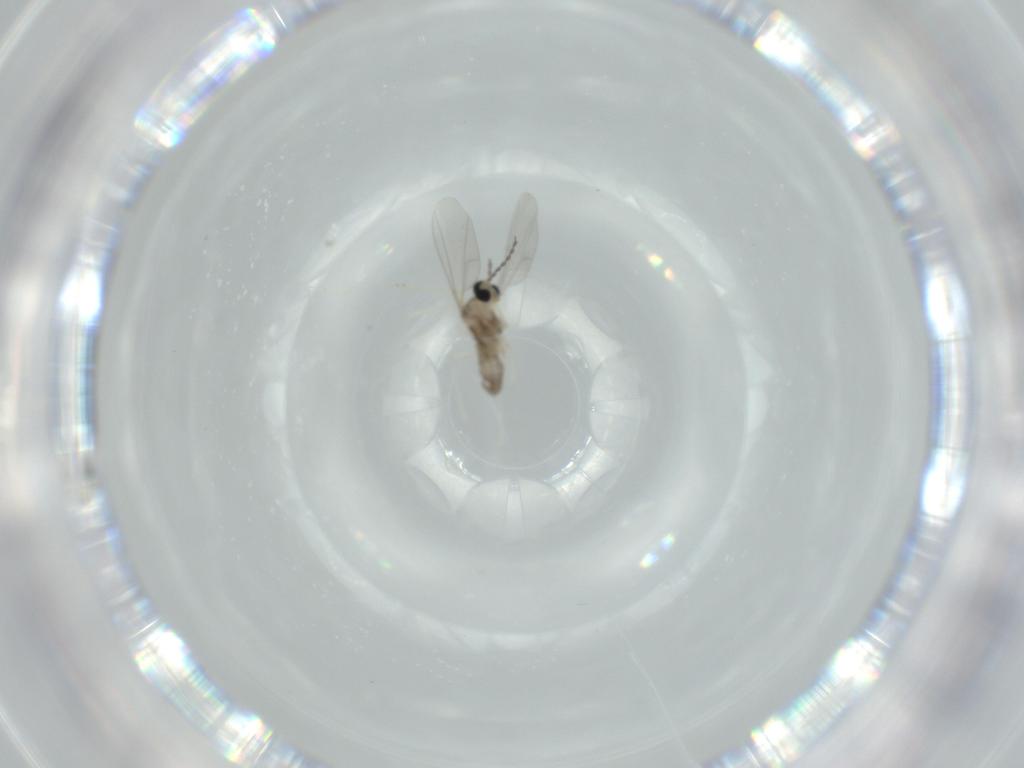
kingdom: Animalia
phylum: Arthropoda
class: Insecta
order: Diptera
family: Cecidomyiidae
